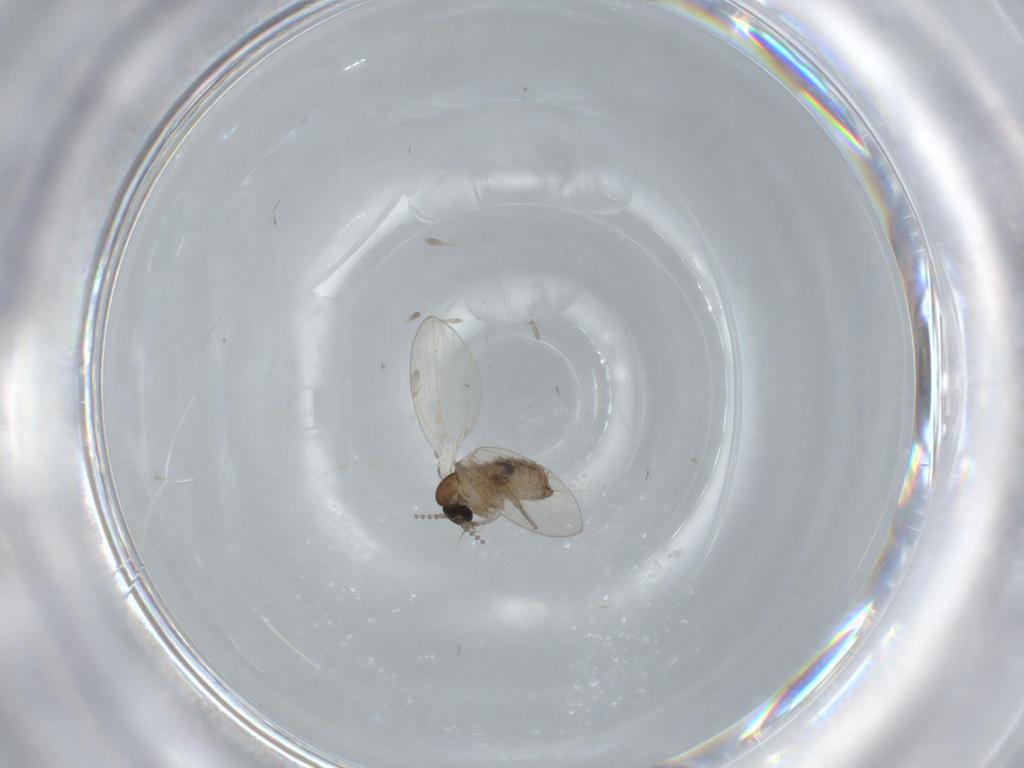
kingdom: Animalia
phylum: Arthropoda
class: Insecta
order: Diptera
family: Psychodidae
